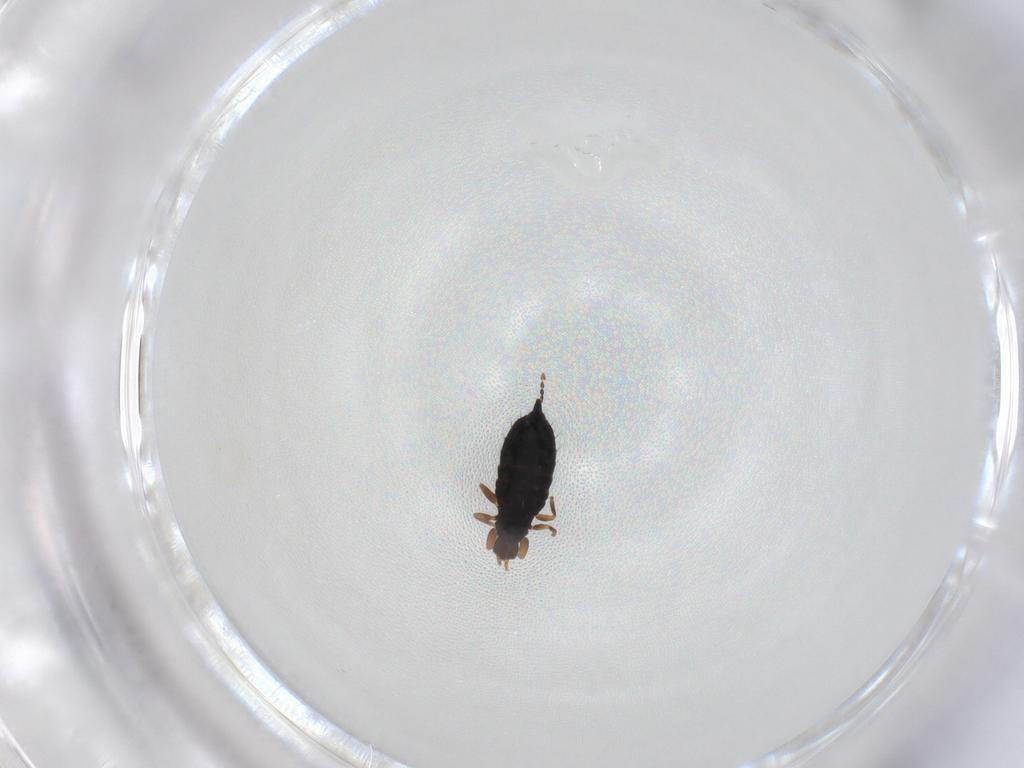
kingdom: Animalia
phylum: Arthropoda
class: Insecta
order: Thysanoptera
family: Phlaeothripidae
